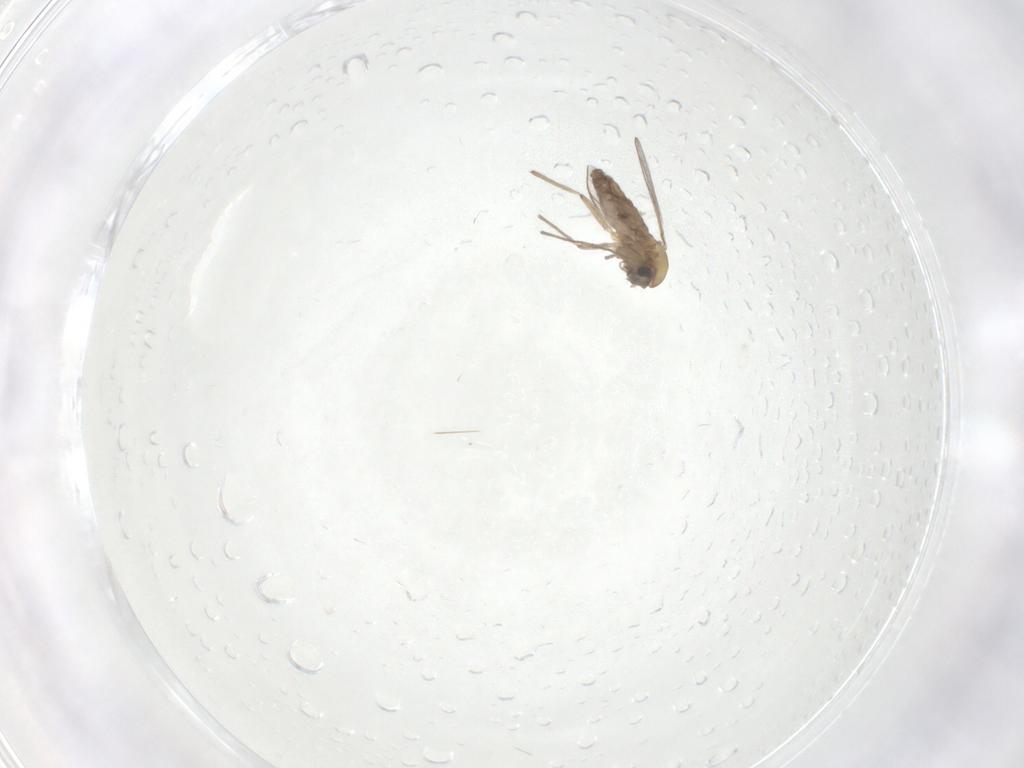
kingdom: Animalia
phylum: Arthropoda
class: Insecta
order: Diptera
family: Chironomidae
